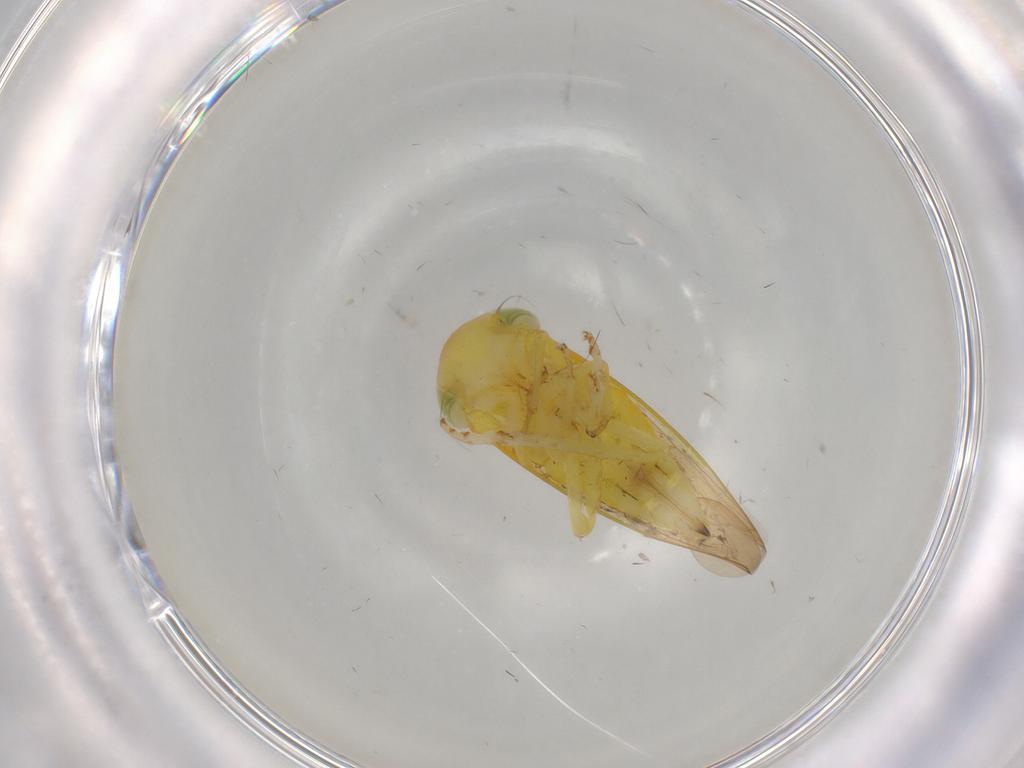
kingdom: Animalia
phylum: Arthropoda
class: Insecta
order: Hemiptera
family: Cicadellidae
